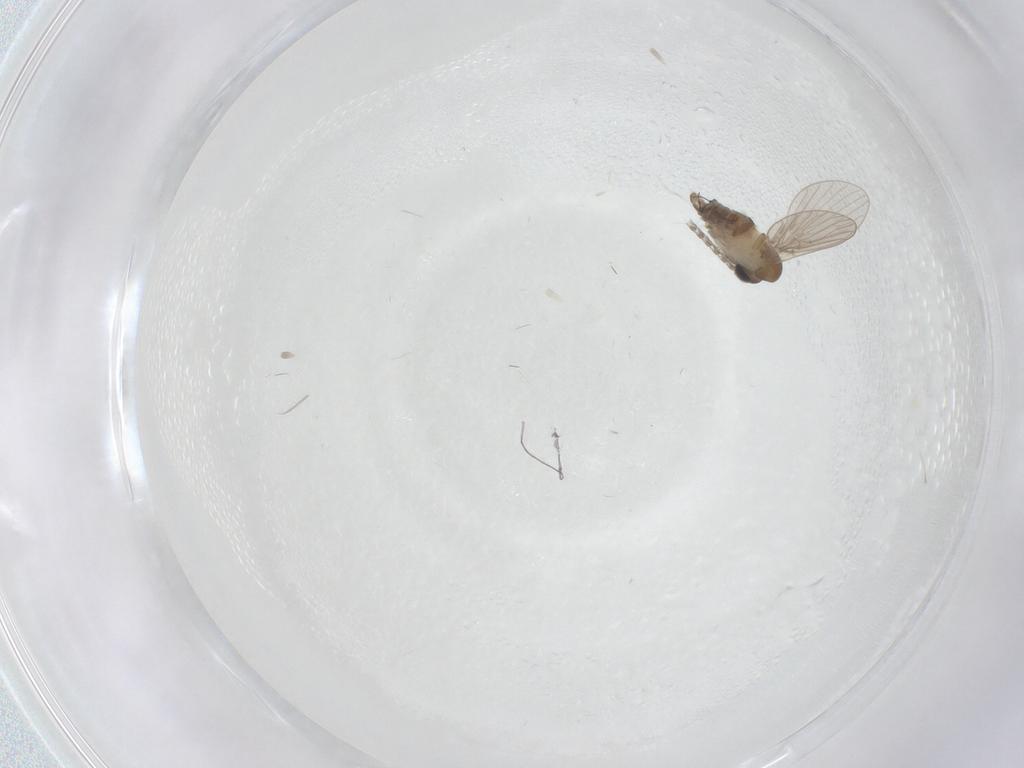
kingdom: Animalia
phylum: Arthropoda
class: Insecta
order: Diptera
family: Psychodidae
